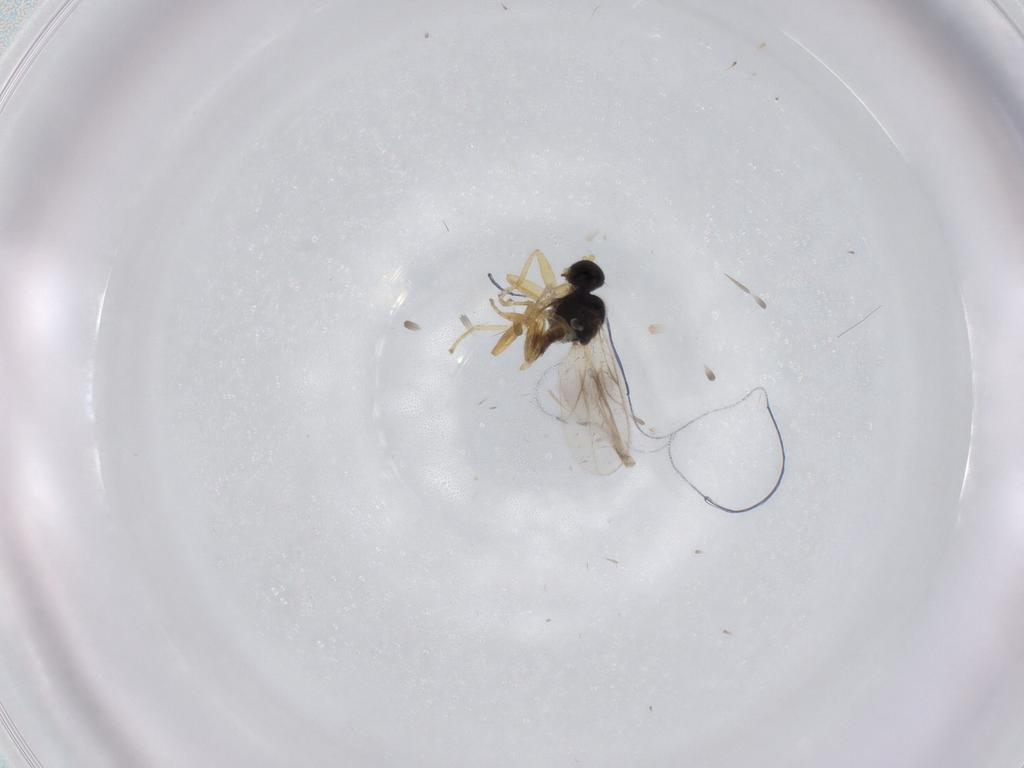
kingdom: Animalia
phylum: Arthropoda
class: Insecta
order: Diptera
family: Hybotidae
